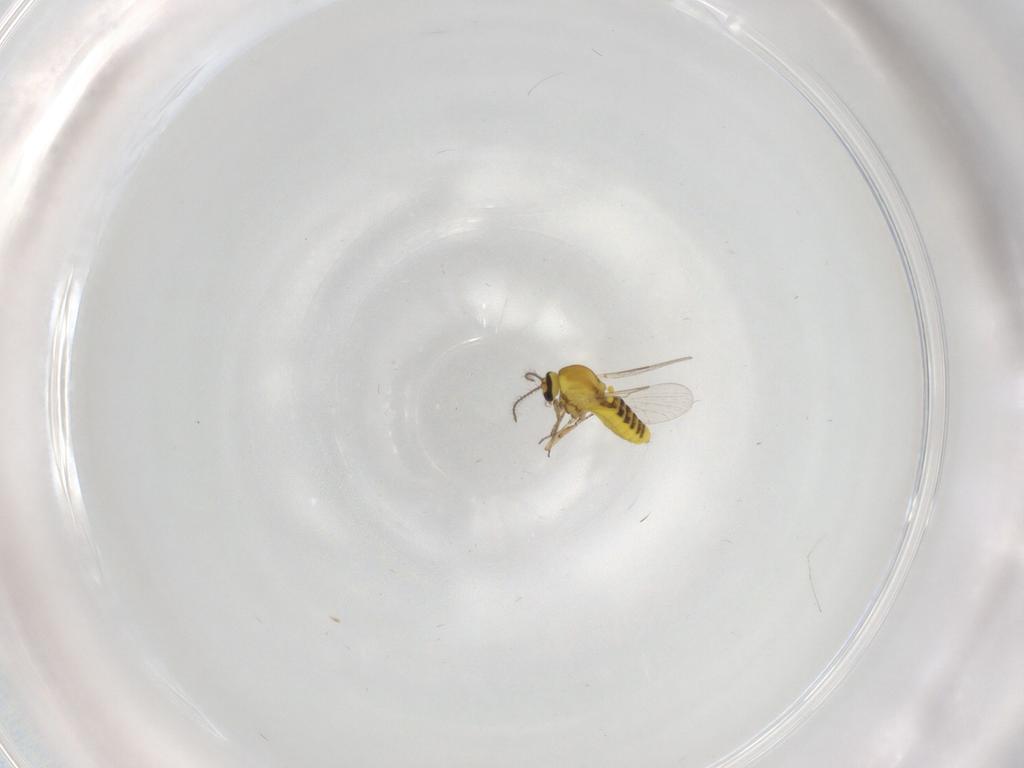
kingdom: Animalia
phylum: Arthropoda
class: Insecta
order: Diptera
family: Ceratopogonidae
